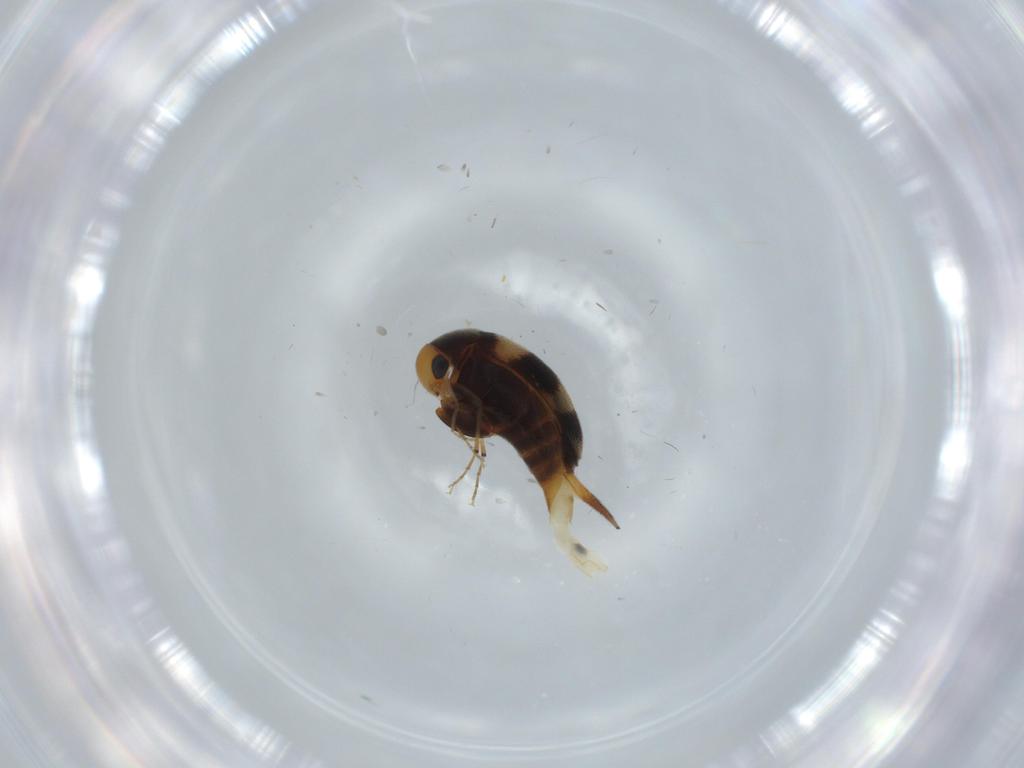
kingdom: Animalia
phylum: Arthropoda
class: Insecta
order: Coleoptera
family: Mordellidae
